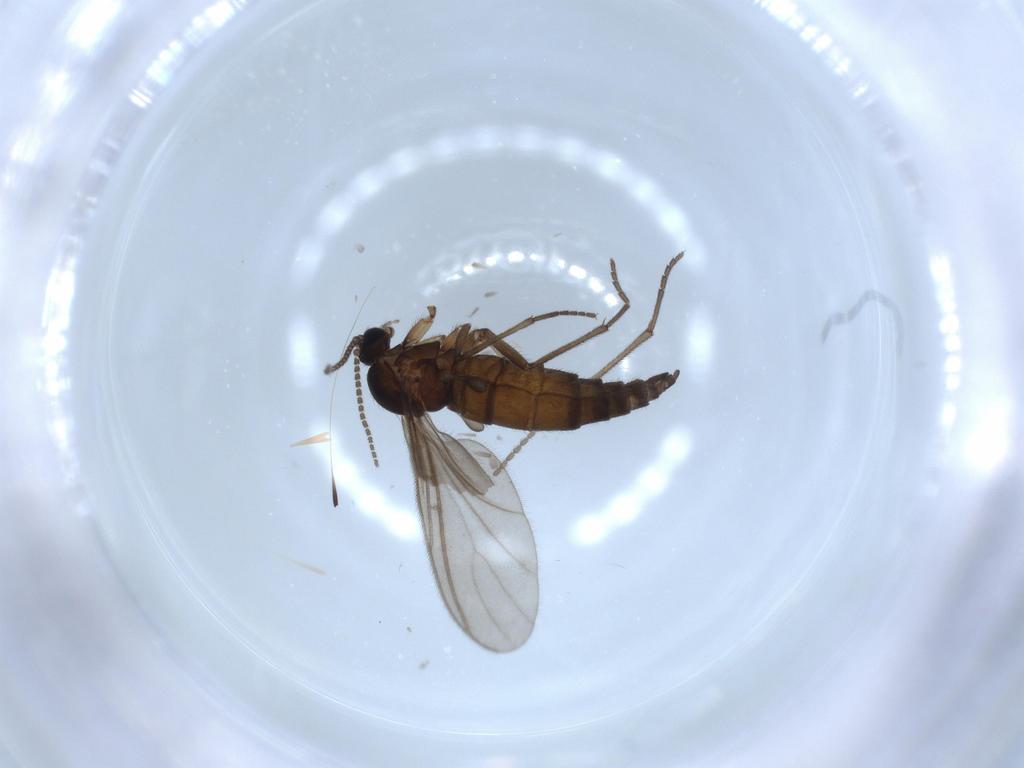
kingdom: Animalia
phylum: Arthropoda
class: Insecta
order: Diptera
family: Sciaridae
